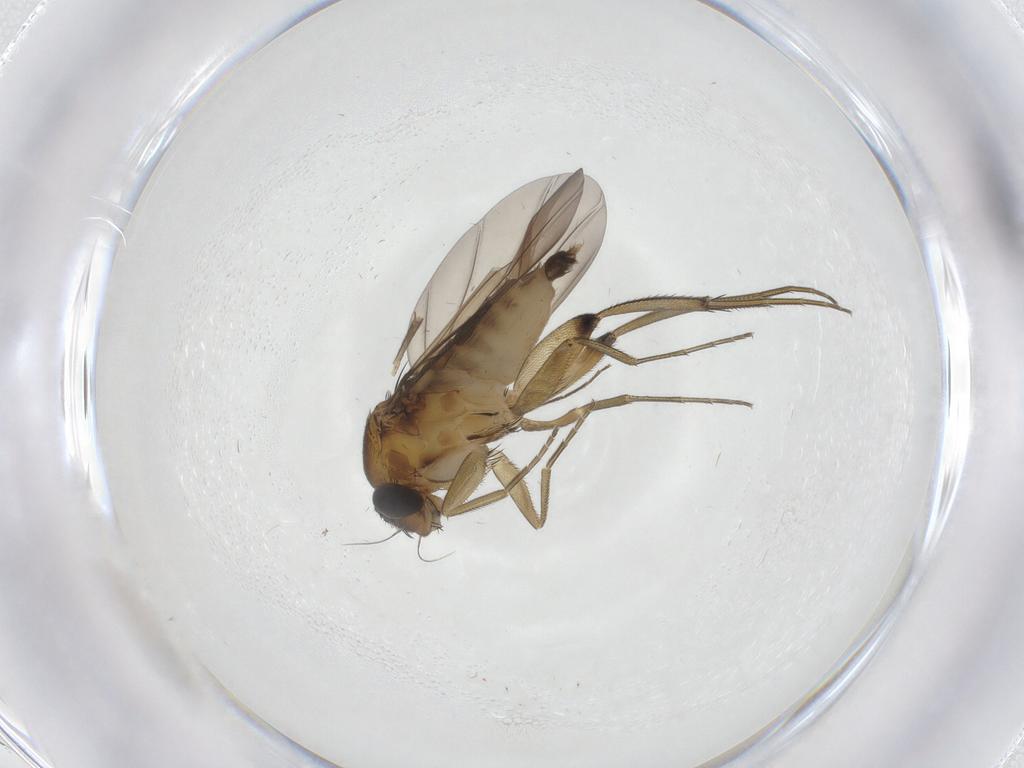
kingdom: Animalia
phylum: Arthropoda
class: Insecta
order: Diptera
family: Phoridae
